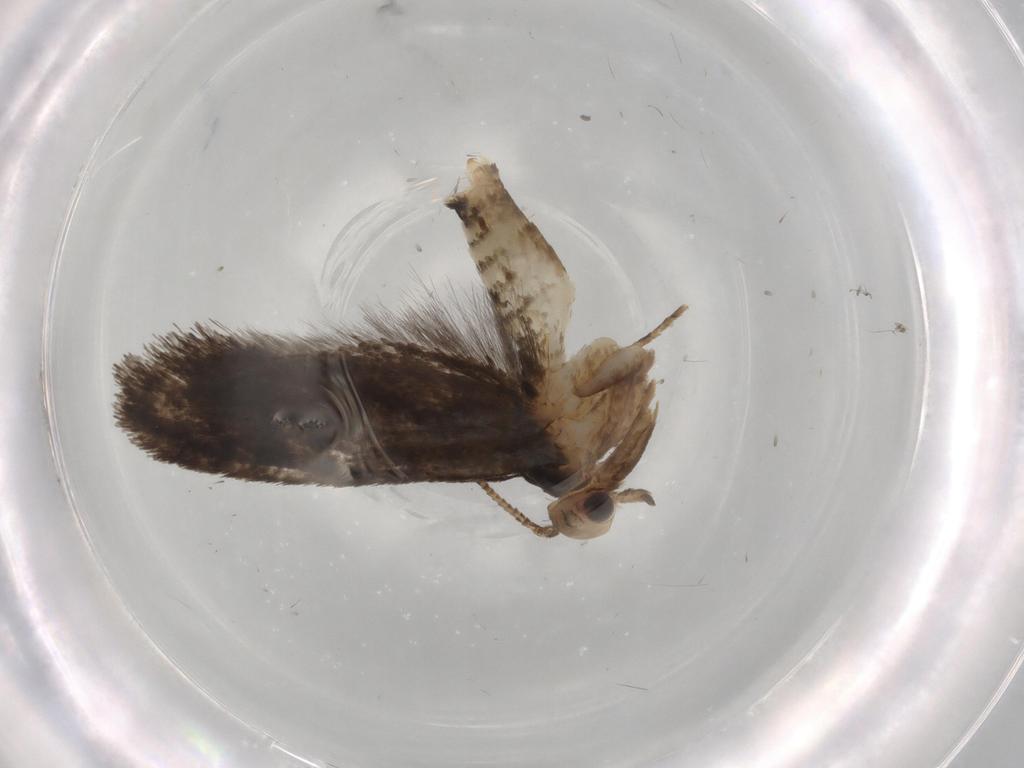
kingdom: Animalia
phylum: Arthropoda
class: Insecta
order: Lepidoptera
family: Tineidae
